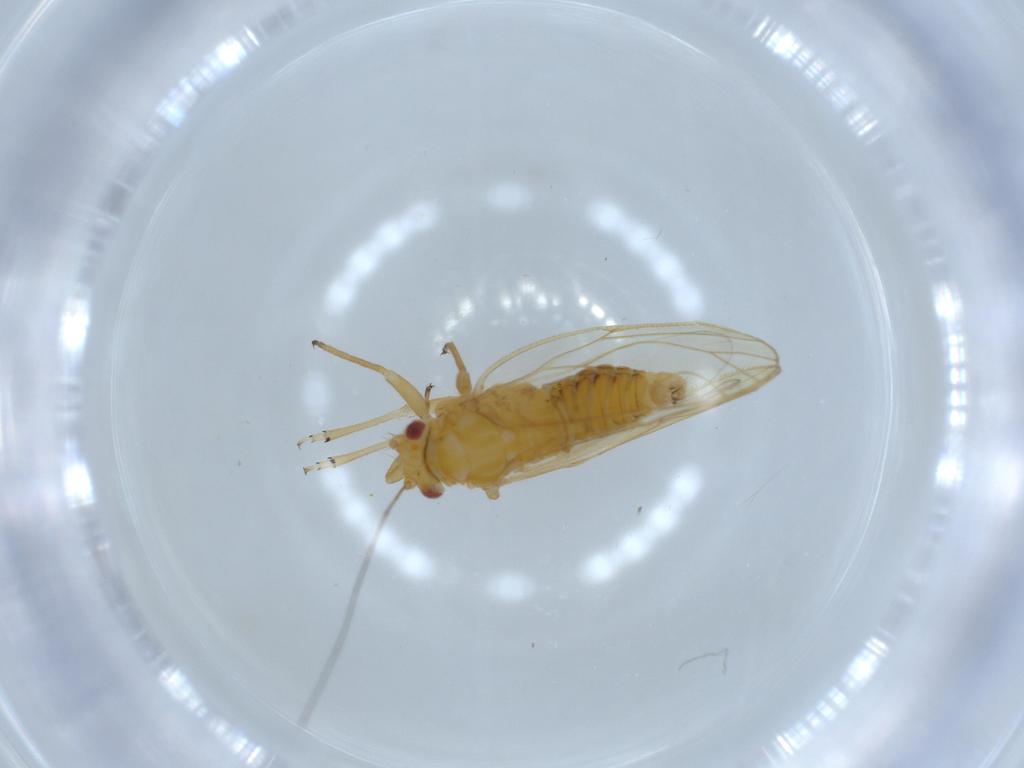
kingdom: Animalia
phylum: Arthropoda
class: Insecta
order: Hemiptera
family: Psyllidae
